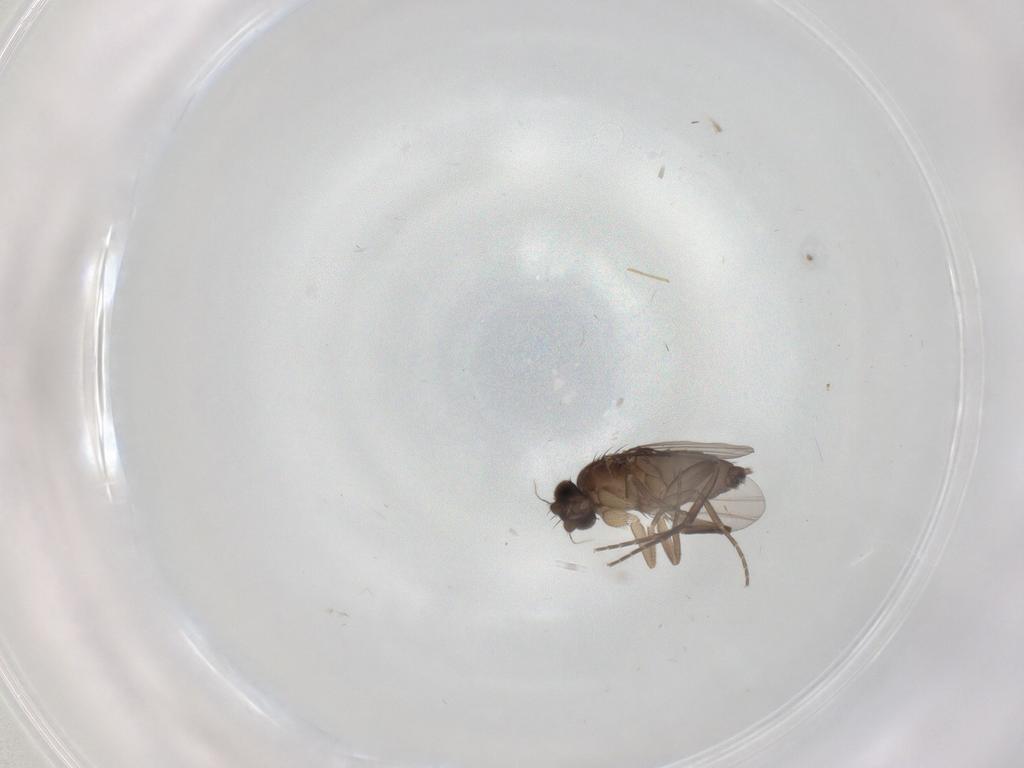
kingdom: Animalia
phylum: Arthropoda
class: Insecta
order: Diptera
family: Phoridae
